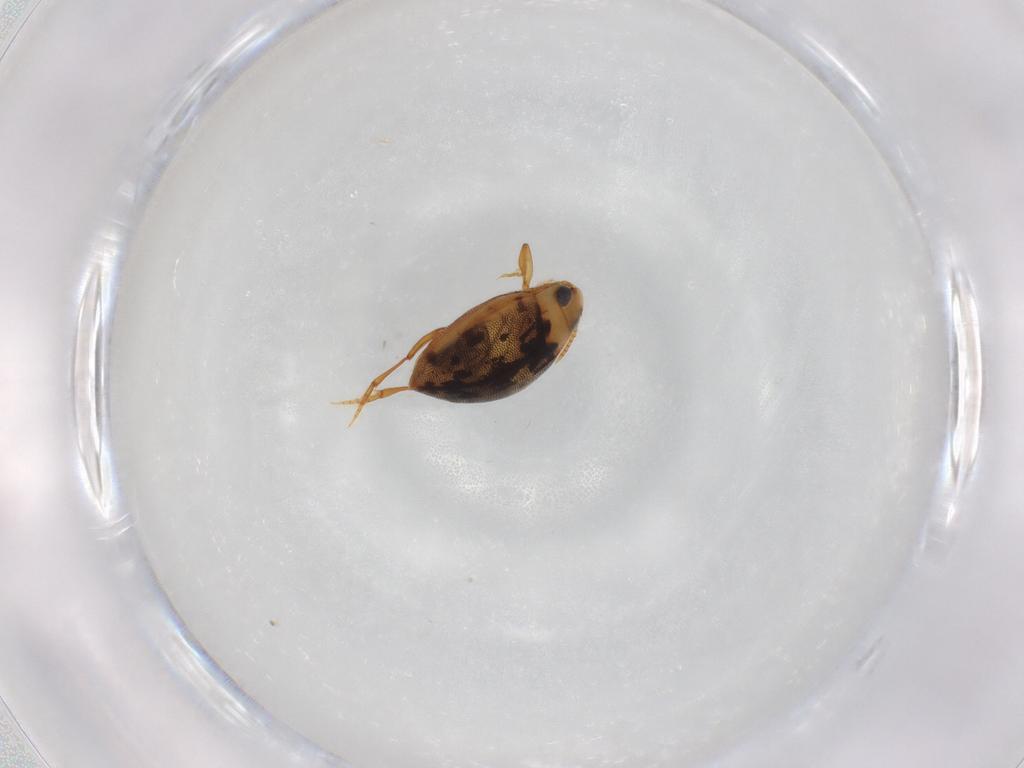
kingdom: Animalia
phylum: Arthropoda
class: Insecta
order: Coleoptera
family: Dytiscidae
